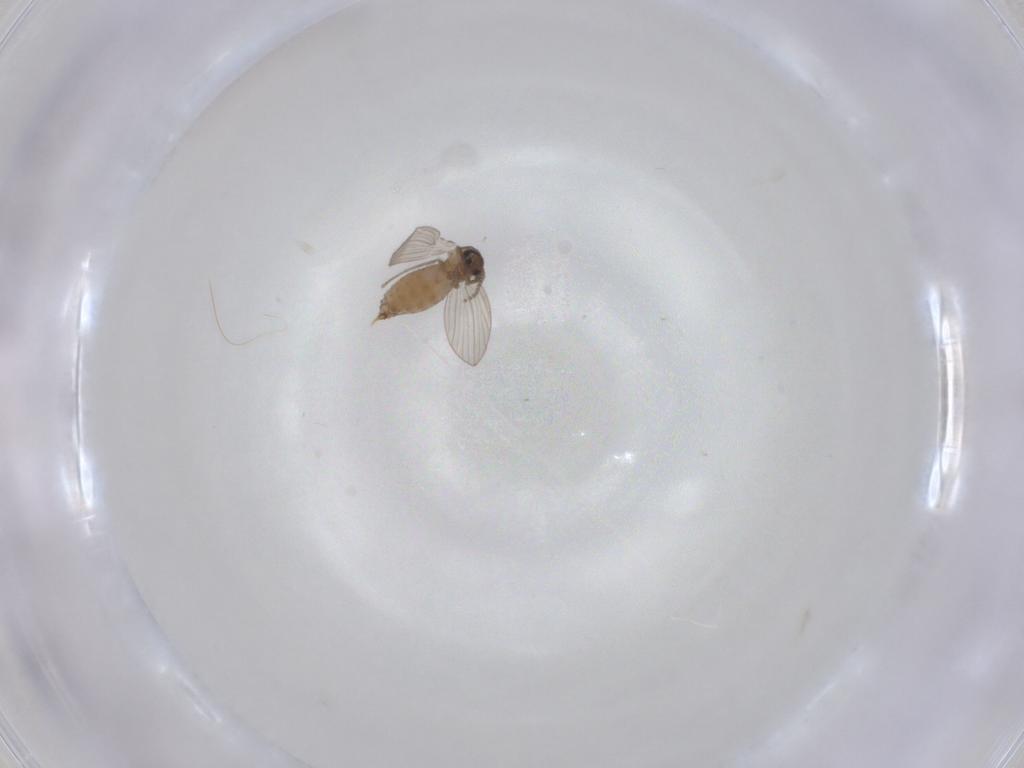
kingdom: Animalia
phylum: Arthropoda
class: Insecta
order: Diptera
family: Psychodidae
